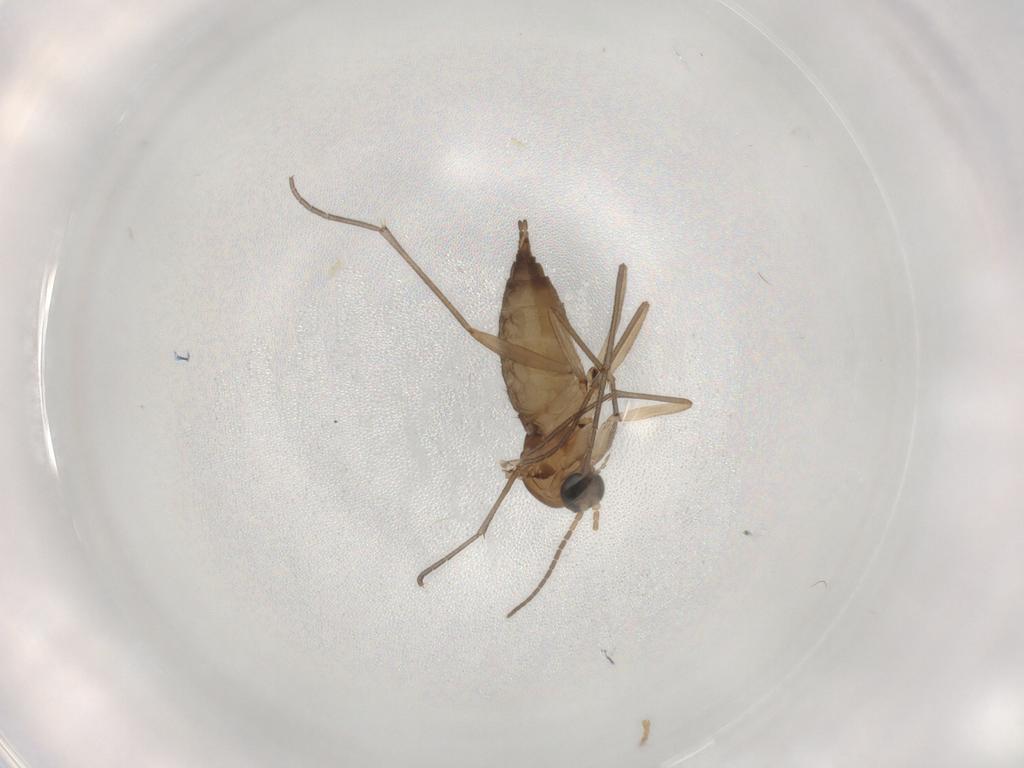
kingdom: Animalia
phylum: Arthropoda
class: Insecta
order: Diptera
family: Sciaridae
